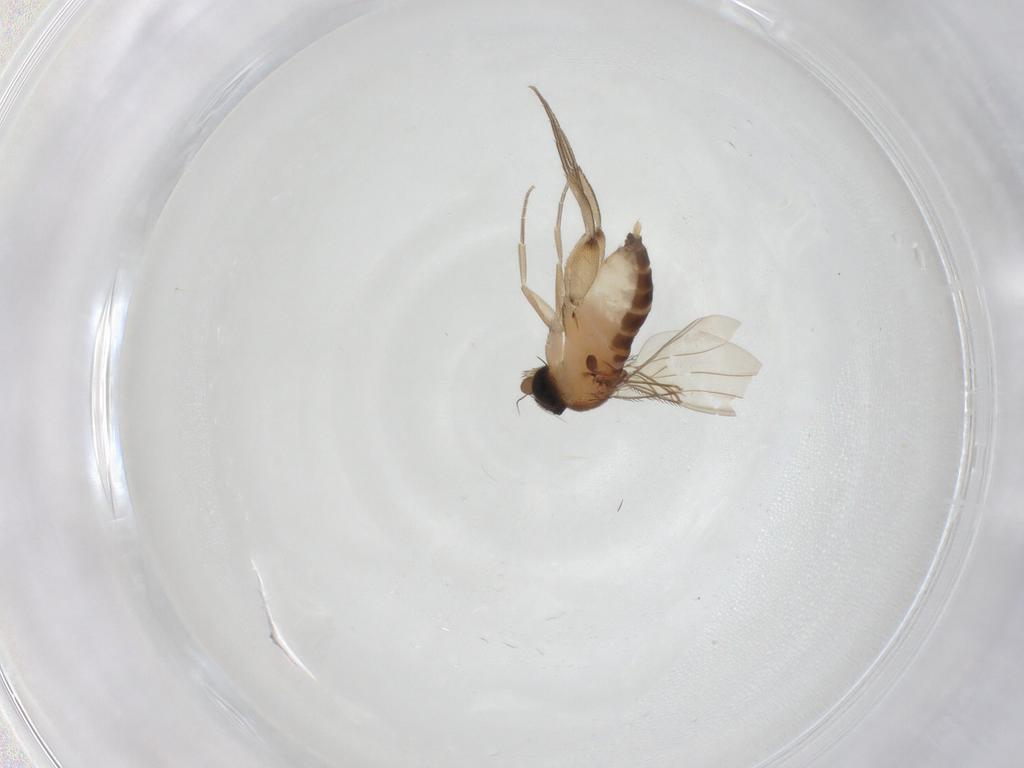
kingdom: Animalia
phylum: Arthropoda
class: Insecta
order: Diptera
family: Phoridae
